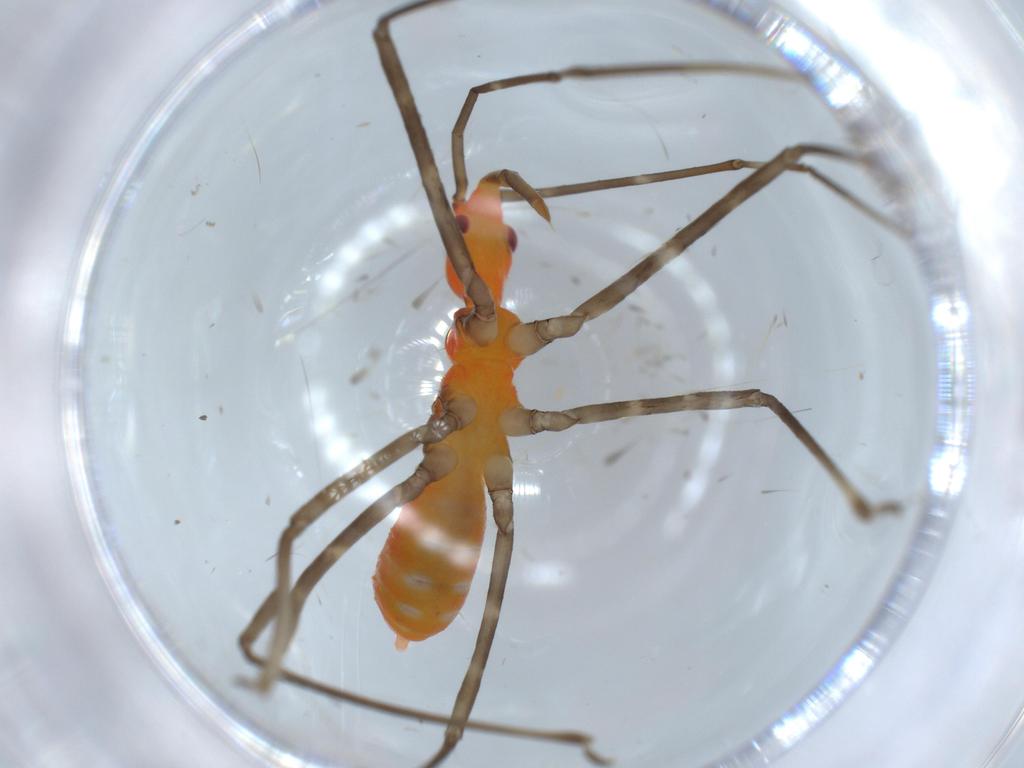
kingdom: Animalia
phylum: Arthropoda
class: Insecta
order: Hemiptera
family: Reduviidae
